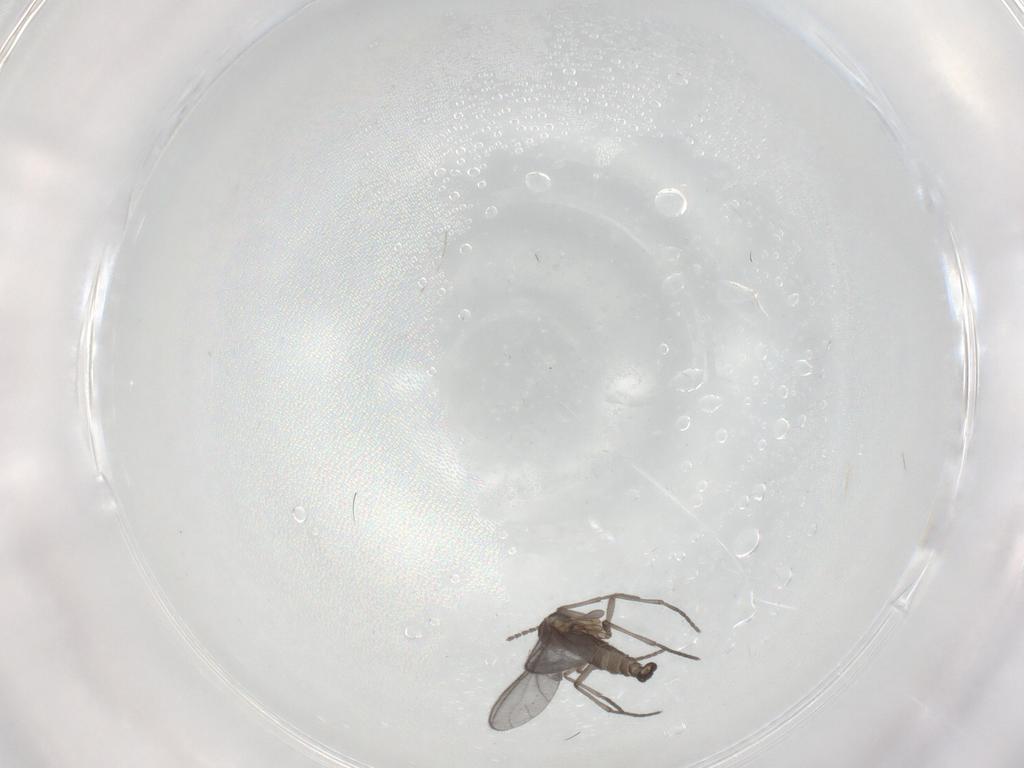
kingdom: Animalia
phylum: Arthropoda
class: Insecta
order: Diptera
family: Sciaridae
